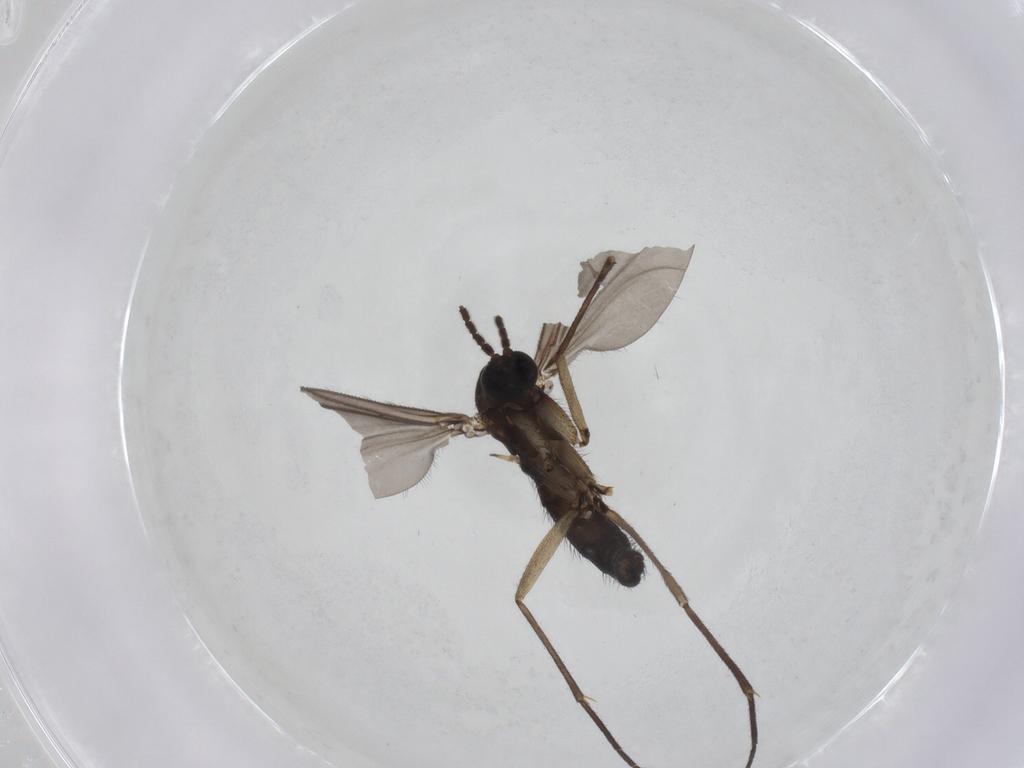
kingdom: Animalia
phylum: Arthropoda
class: Insecta
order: Diptera
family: Sciaridae
